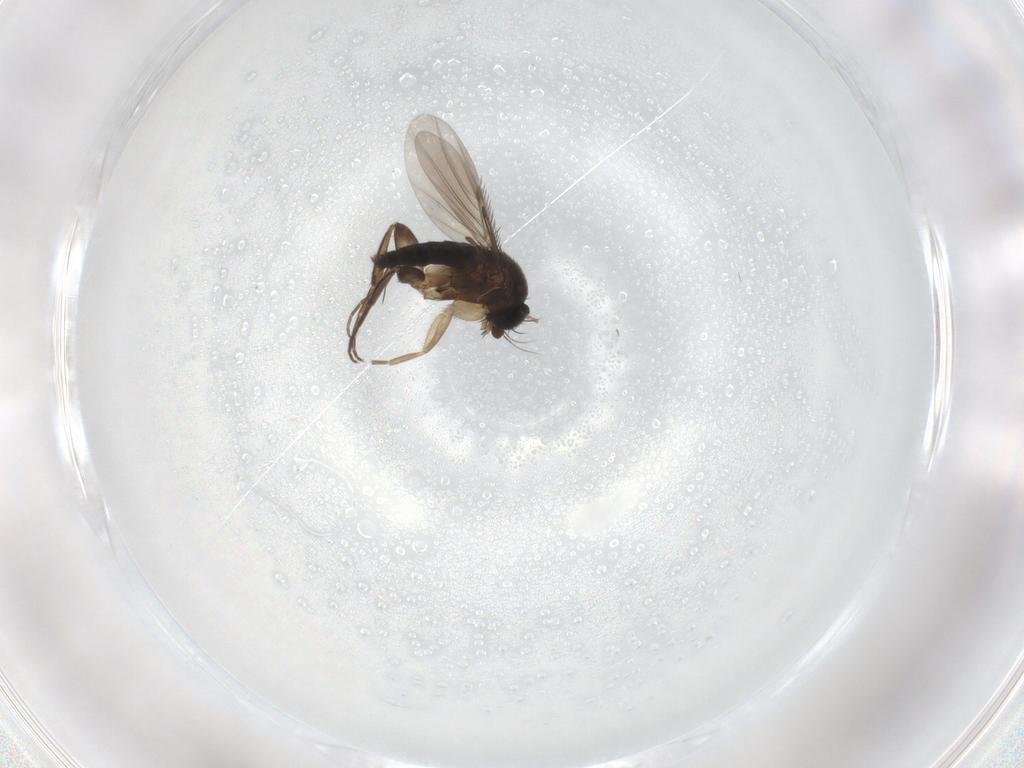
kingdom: Animalia
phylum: Arthropoda
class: Insecta
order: Diptera
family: Phoridae
